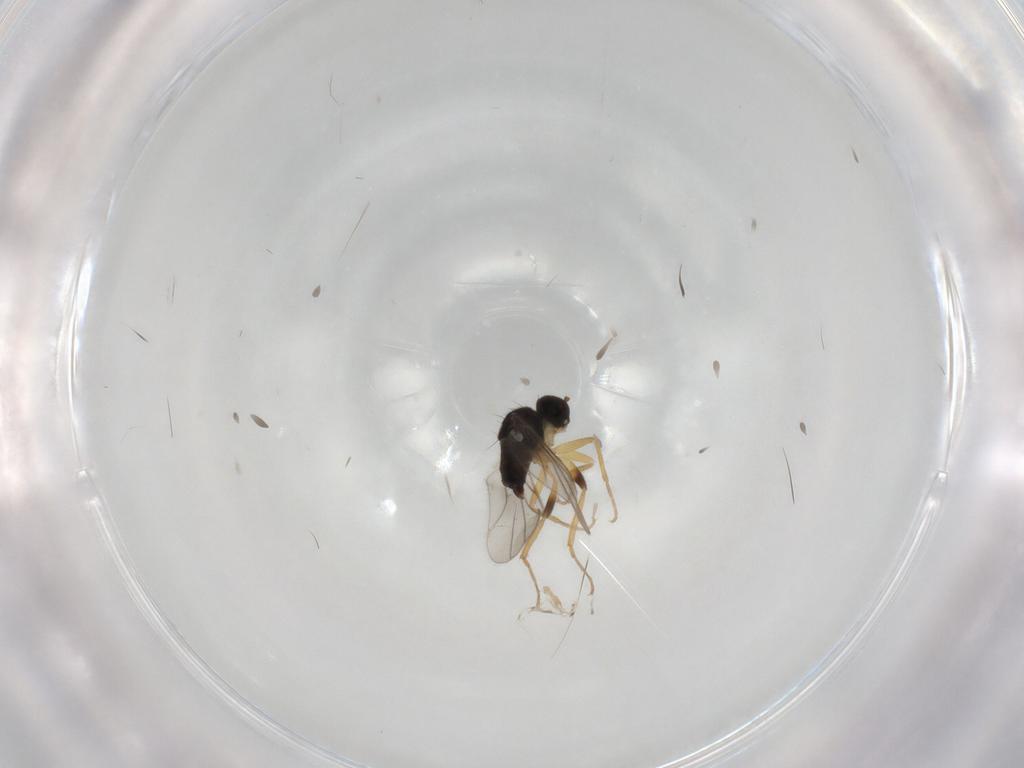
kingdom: Animalia
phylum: Arthropoda
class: Insecta
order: Diptera
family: Hybotidae
